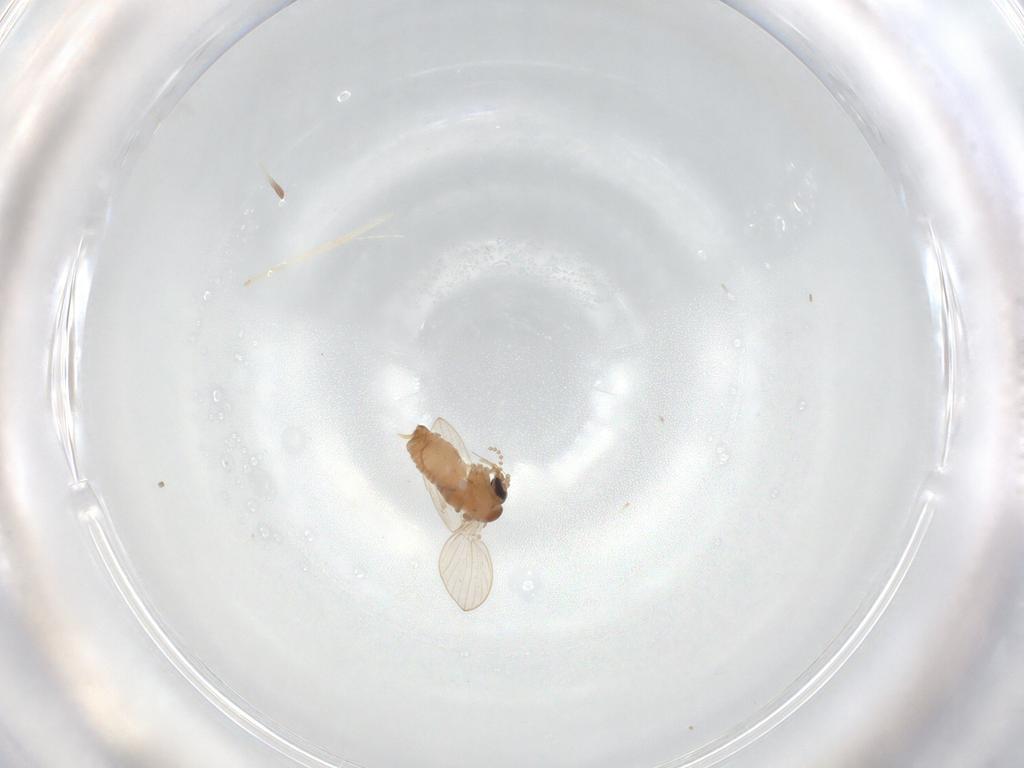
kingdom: Animalia
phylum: Arthropoda
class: Insecta
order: Diptera
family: Psychodidae
